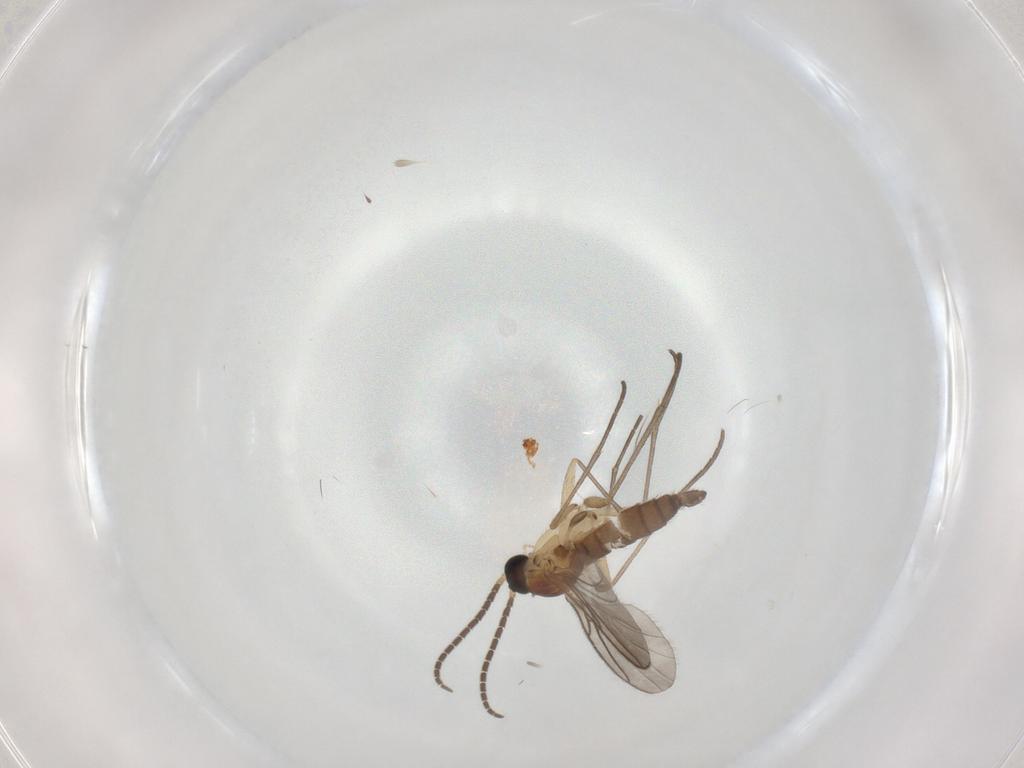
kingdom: Animalia
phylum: Arthropoda
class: Insecta
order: Diptera
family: Sciaridae
